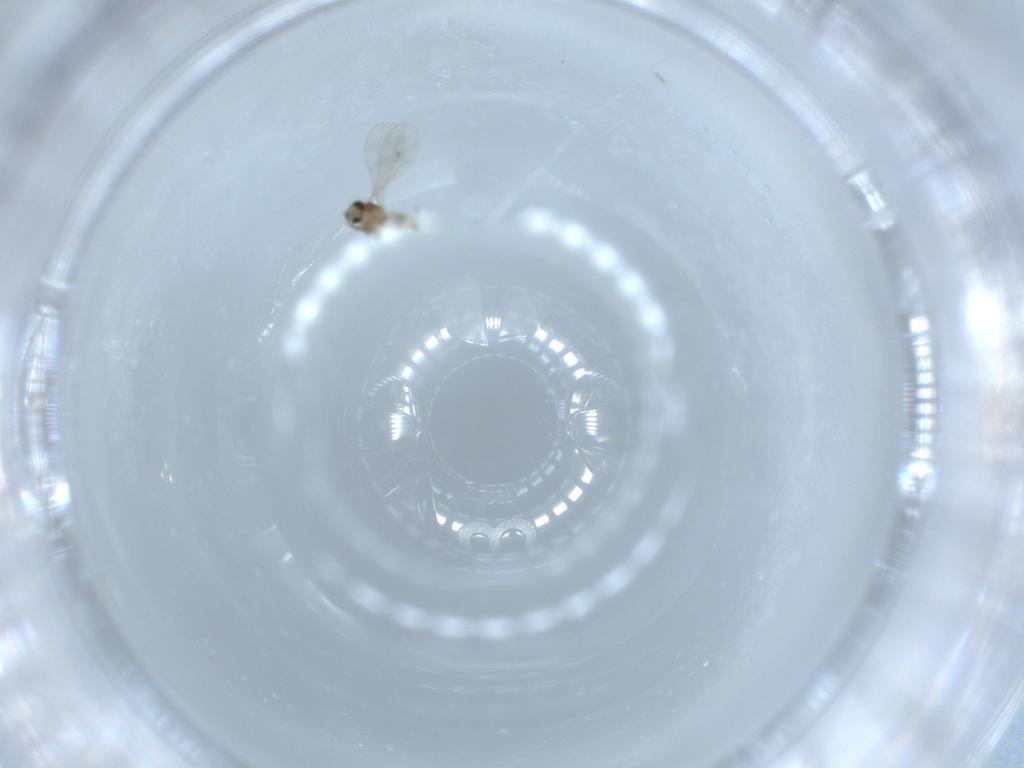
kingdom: Animalia
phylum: Arthropoda
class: Insecta
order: Diptera
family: Cecidomyiidae
